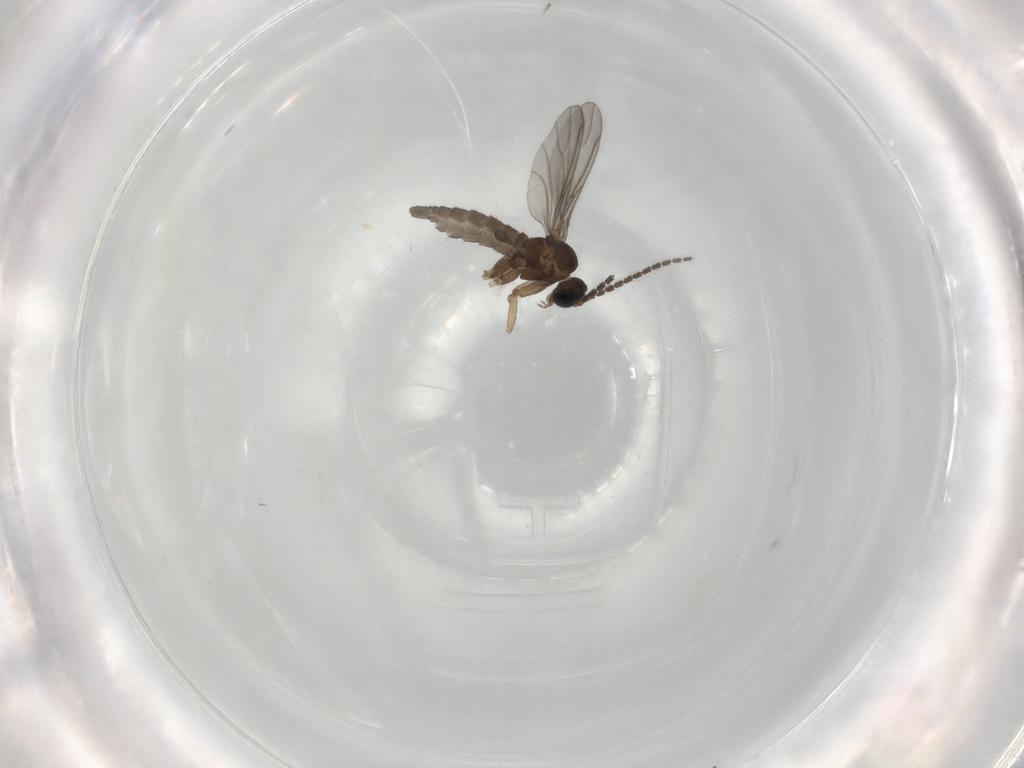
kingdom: Animalia
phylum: Arthropoda
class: Insecta
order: Diptera
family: Sciaridae
